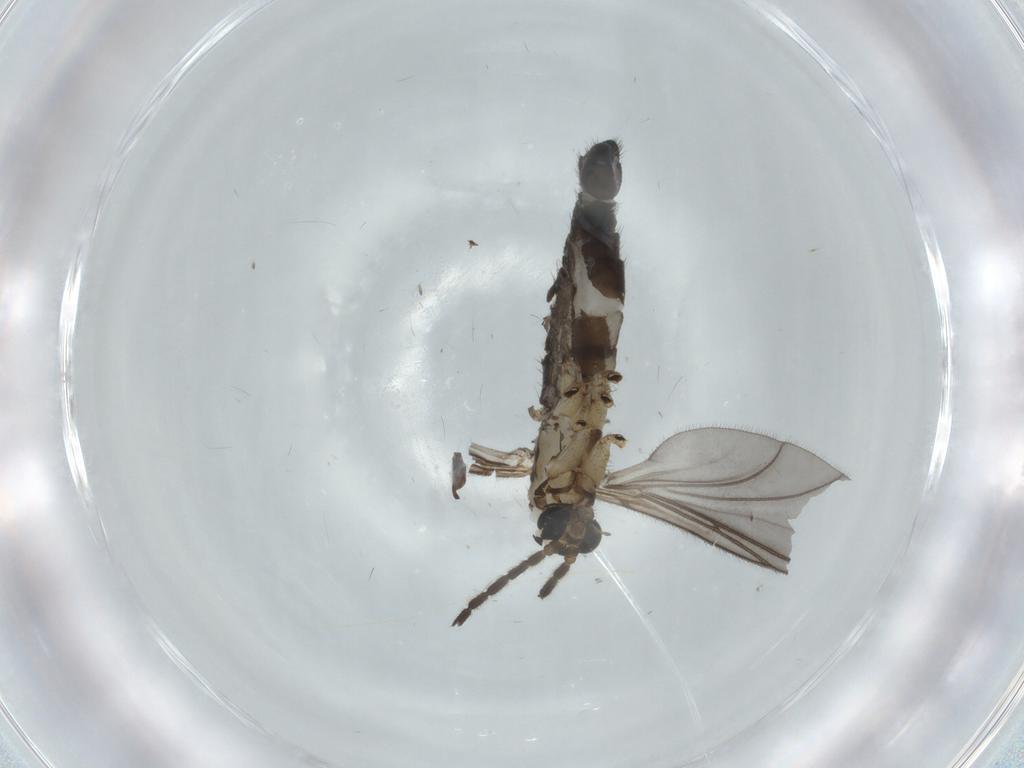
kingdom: Animalia
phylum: Arthropoda
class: Insecta
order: Diptera
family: Sciaridae
